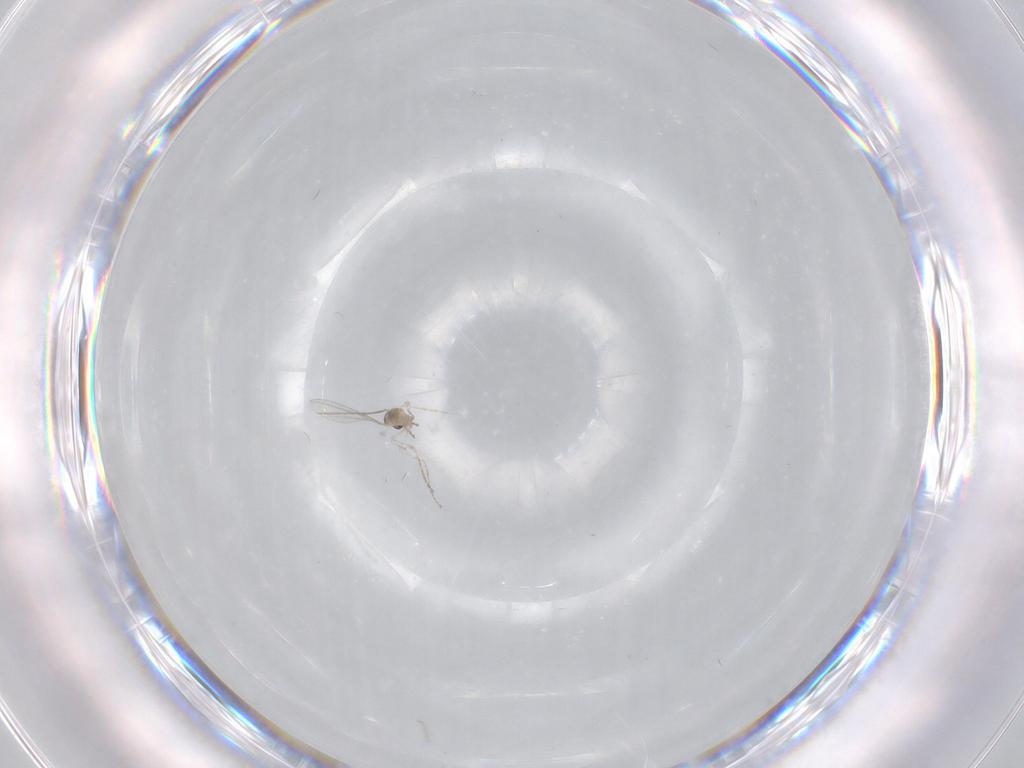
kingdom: Animalia
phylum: Arthropoda
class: Insecta
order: Diptera
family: Cecidomyiidae
